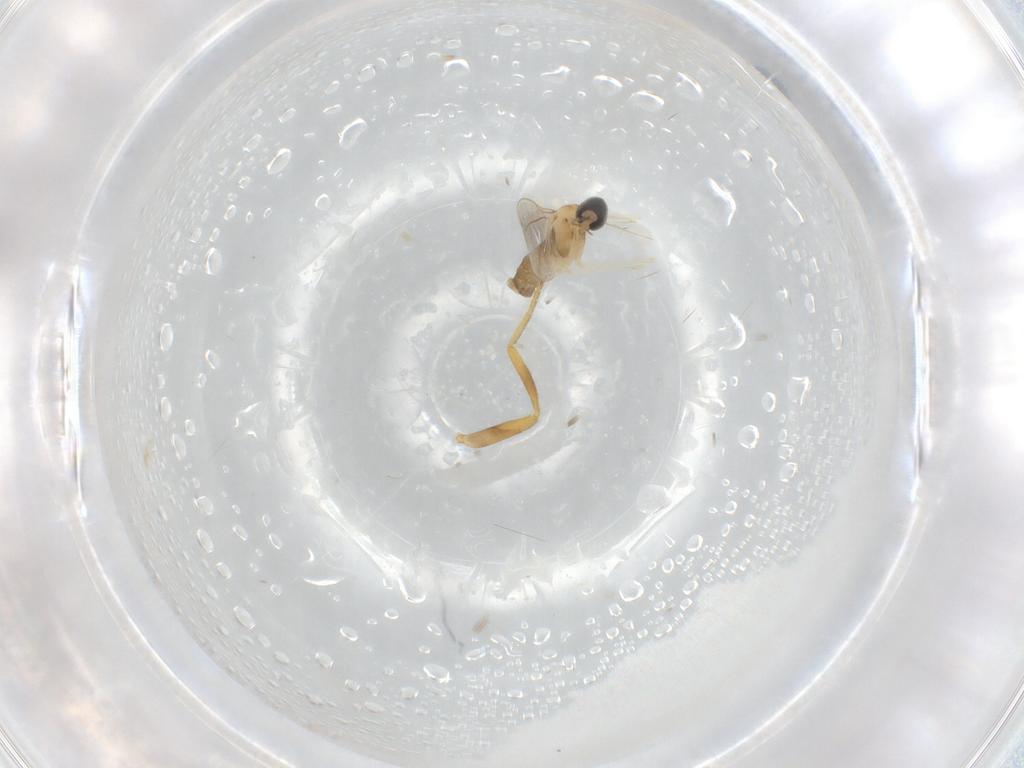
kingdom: Animalia
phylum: Arthropoda
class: Insecta
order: Diptera
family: Cecidomyiidae
